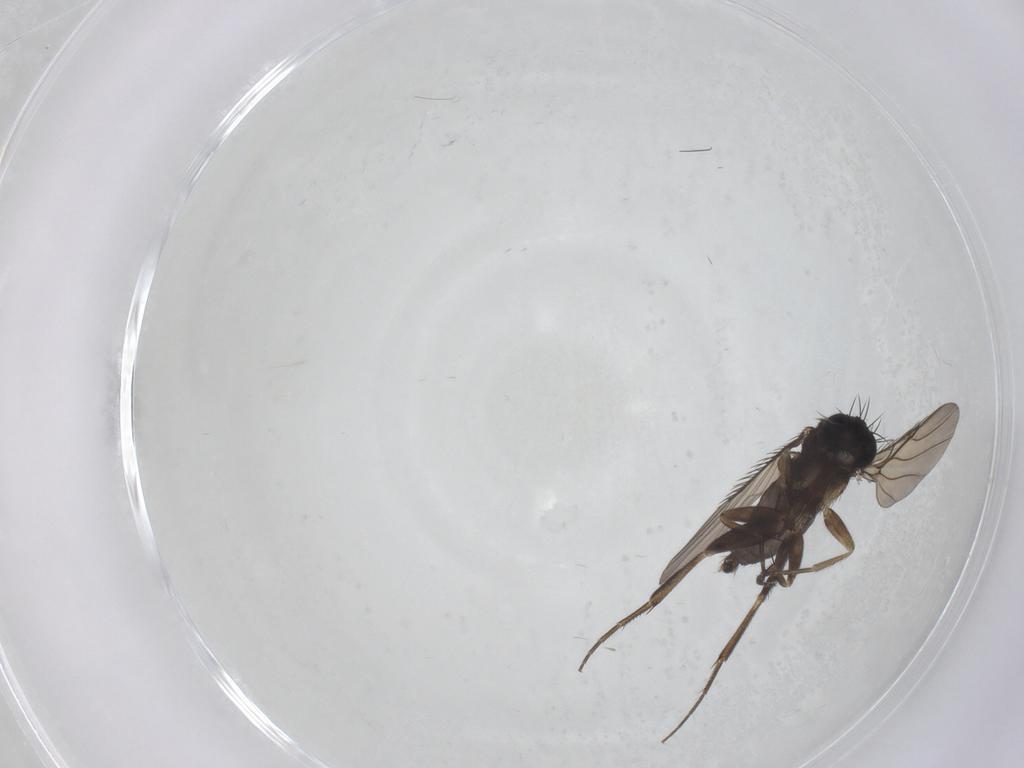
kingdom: Animalia
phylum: Arthropoda
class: Insecta
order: Diptera
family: Phoridae
